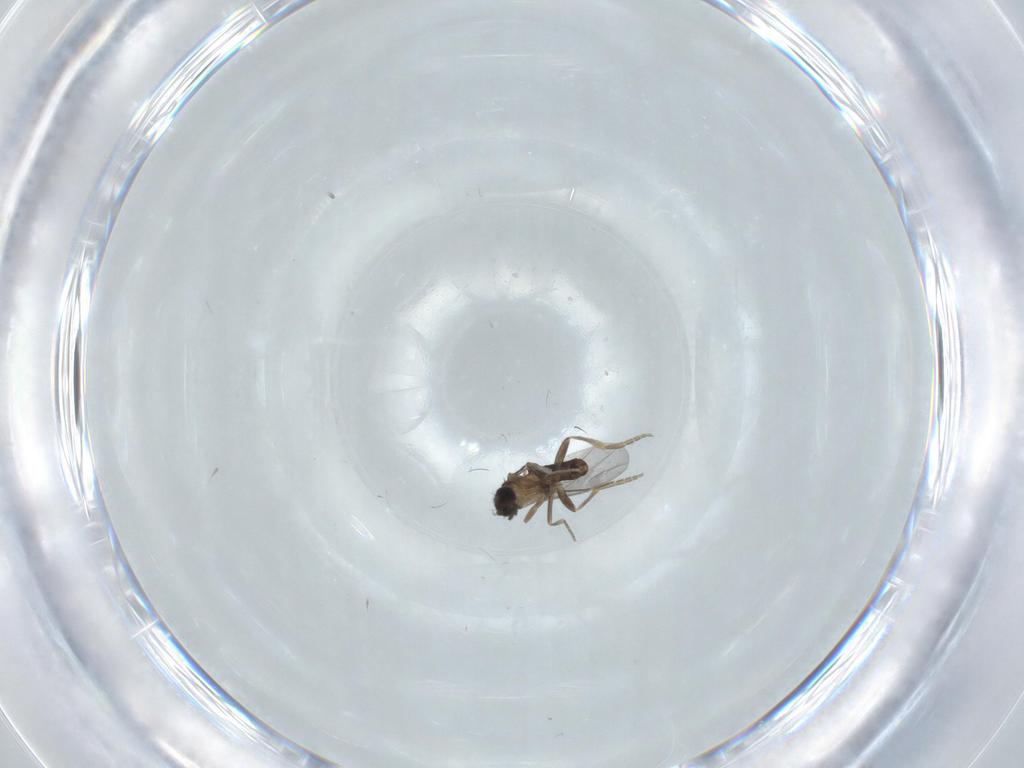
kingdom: Animalia
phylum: Arthropoda
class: Insecta
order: Diptera
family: Chironomidae
